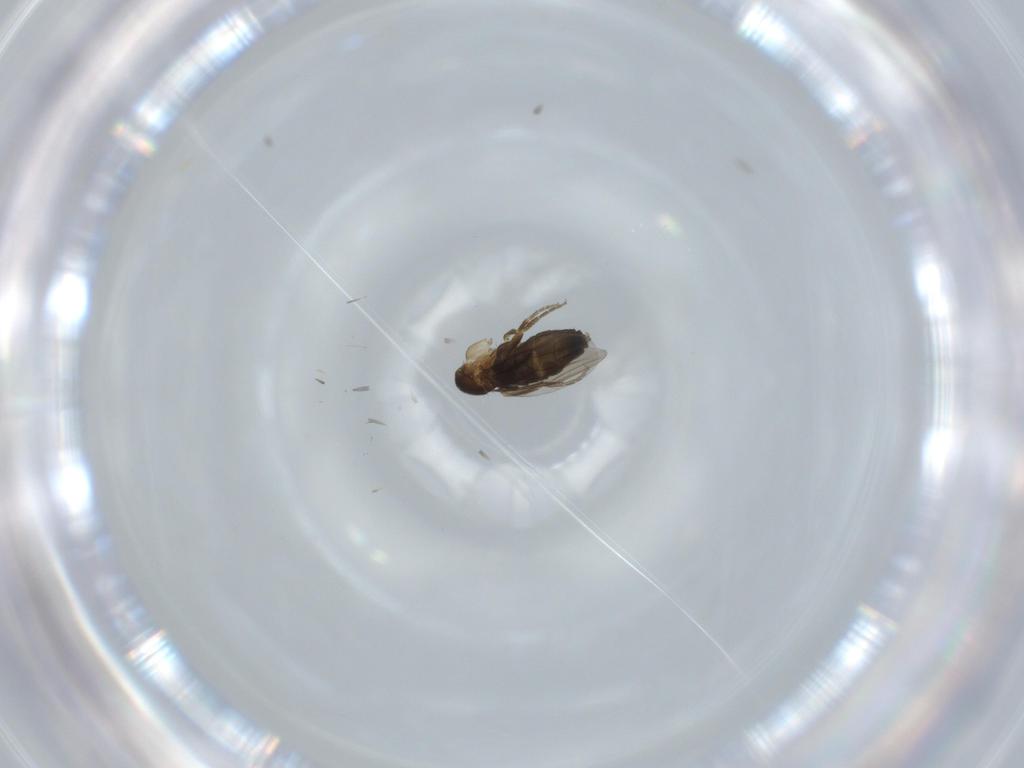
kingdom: Animalia
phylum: Arthropoda
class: Insecta
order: Diptera
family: Phoridae
